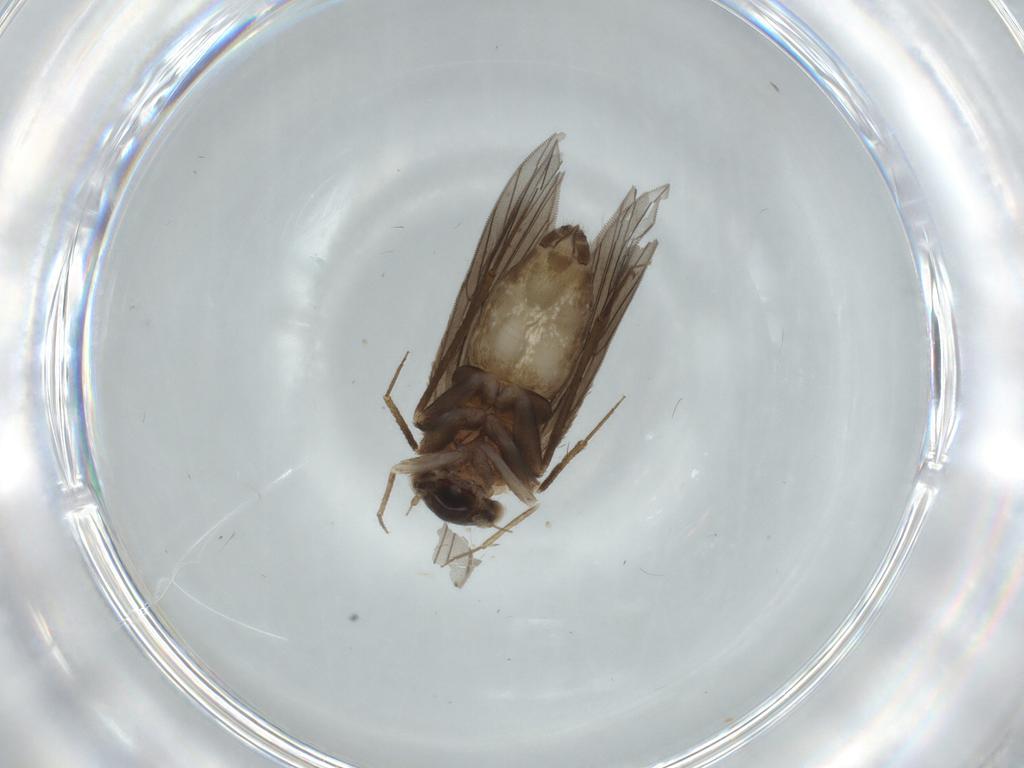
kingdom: Animalia
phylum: Arthropoda
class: Insecta
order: Psocodea
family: Lepidopsocidae
